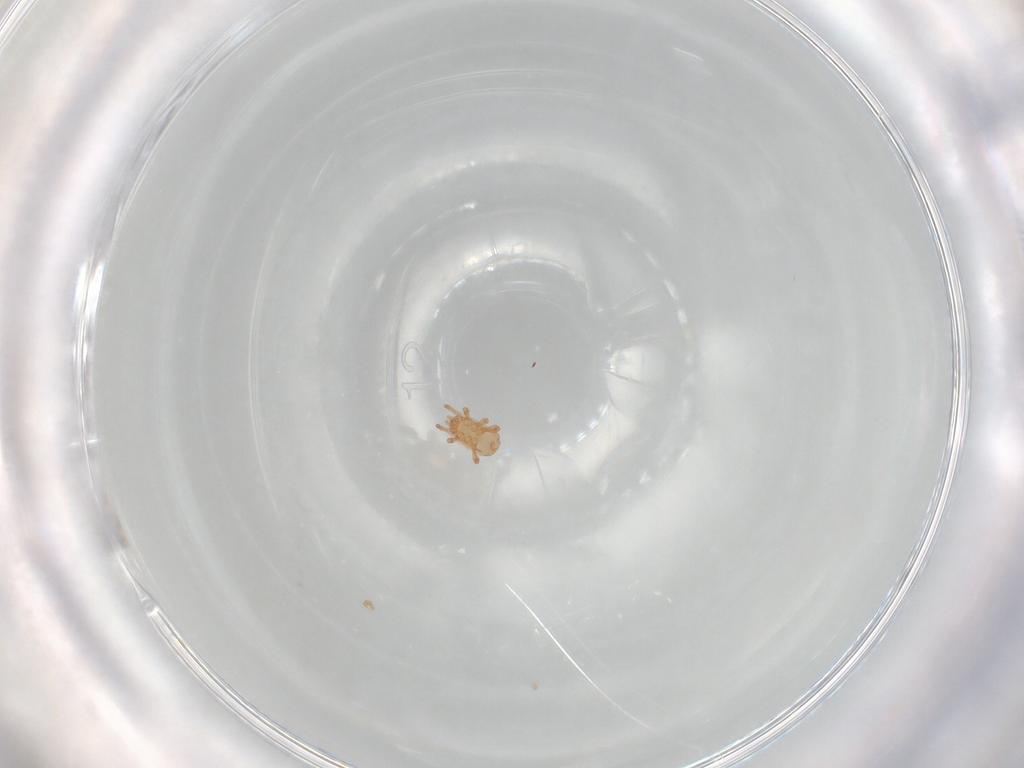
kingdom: Animalia
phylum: Arthropoda
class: Arachnida
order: Mesostigmata
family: Ascidae
